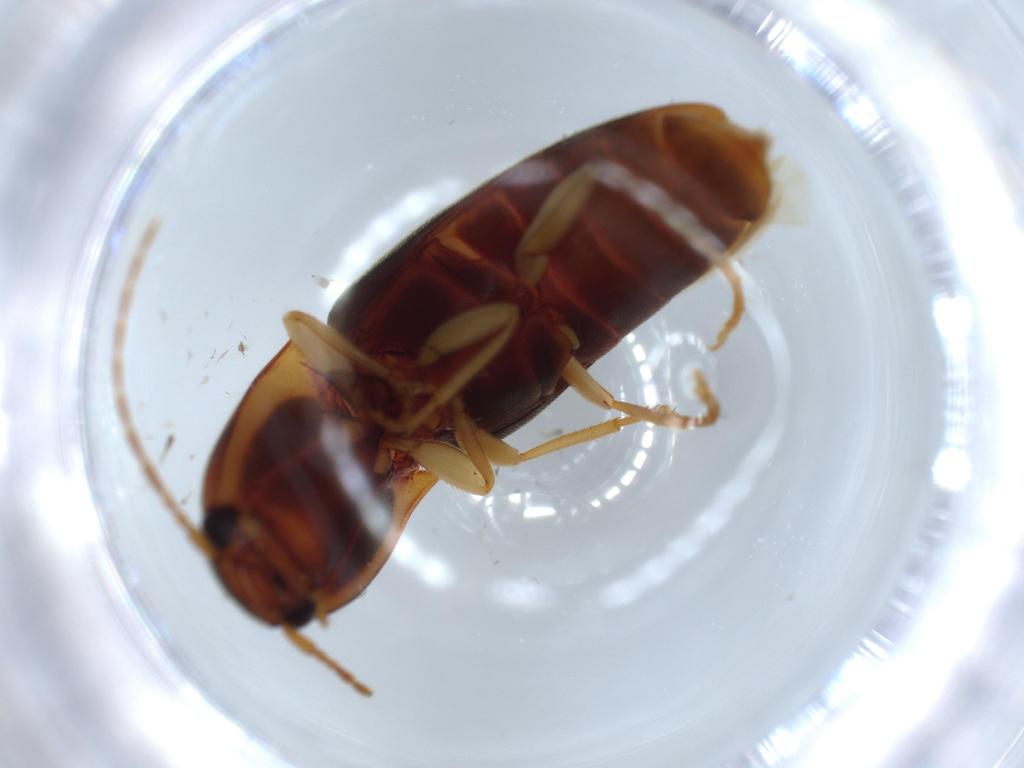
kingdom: Animalia
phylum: Arthropoda
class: Insecta
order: Coleoptera
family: Elateridae
